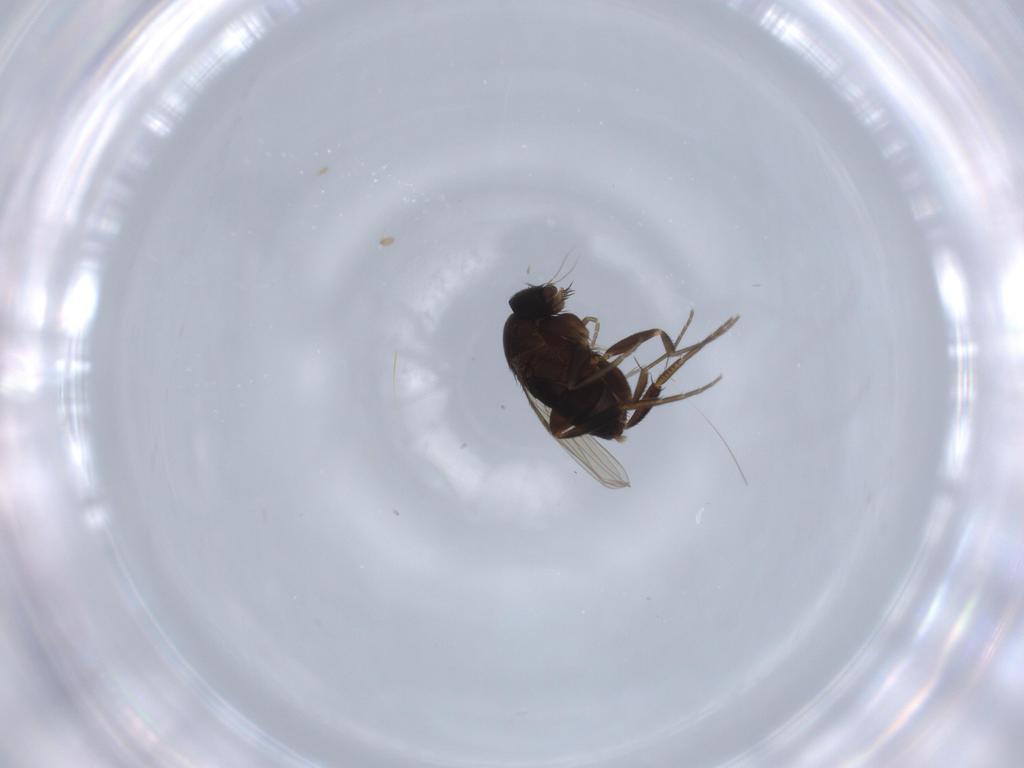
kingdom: Animalia
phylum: Arthropoda
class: Insecta
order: Diptera
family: Phoridae
